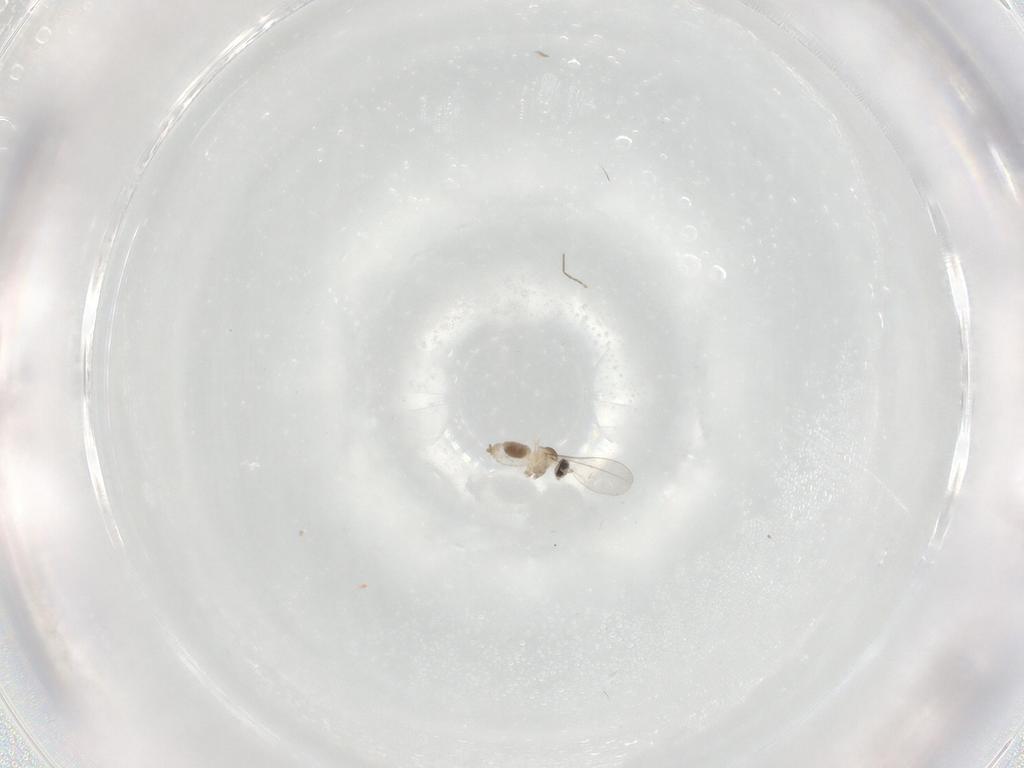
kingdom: Animalia
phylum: Arthropoda
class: Insecta
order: Diptera
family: Cecidomyiidae
